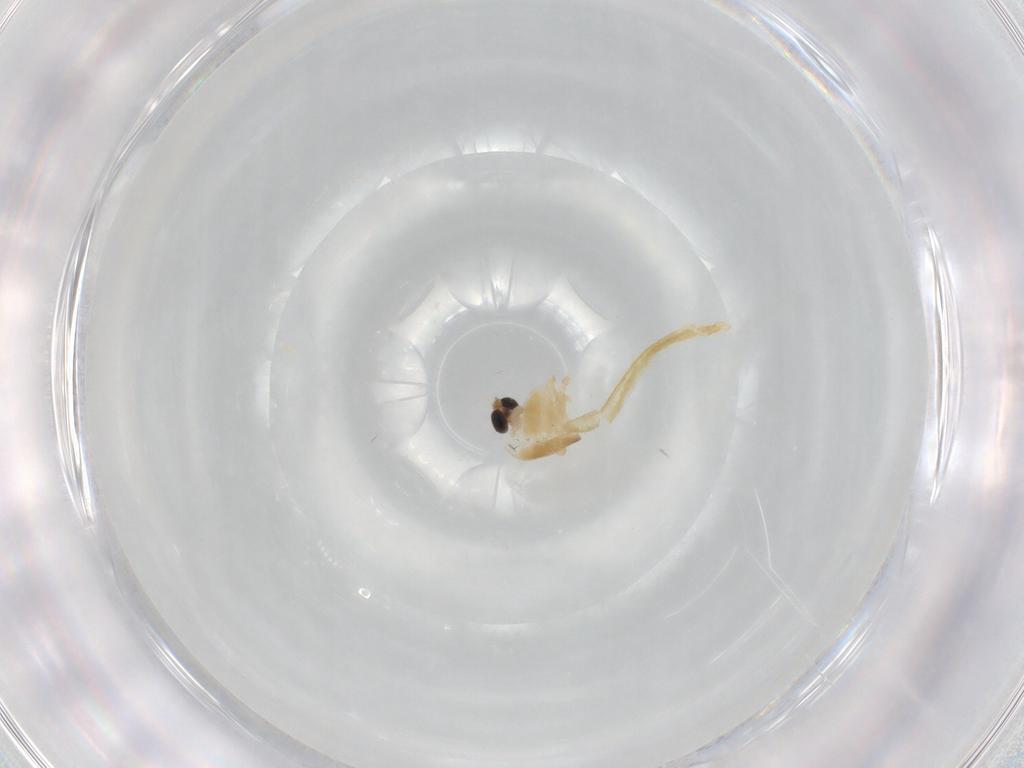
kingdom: Animalia
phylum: Arthropoda
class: Insecta
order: Diptera
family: Chironomidae
